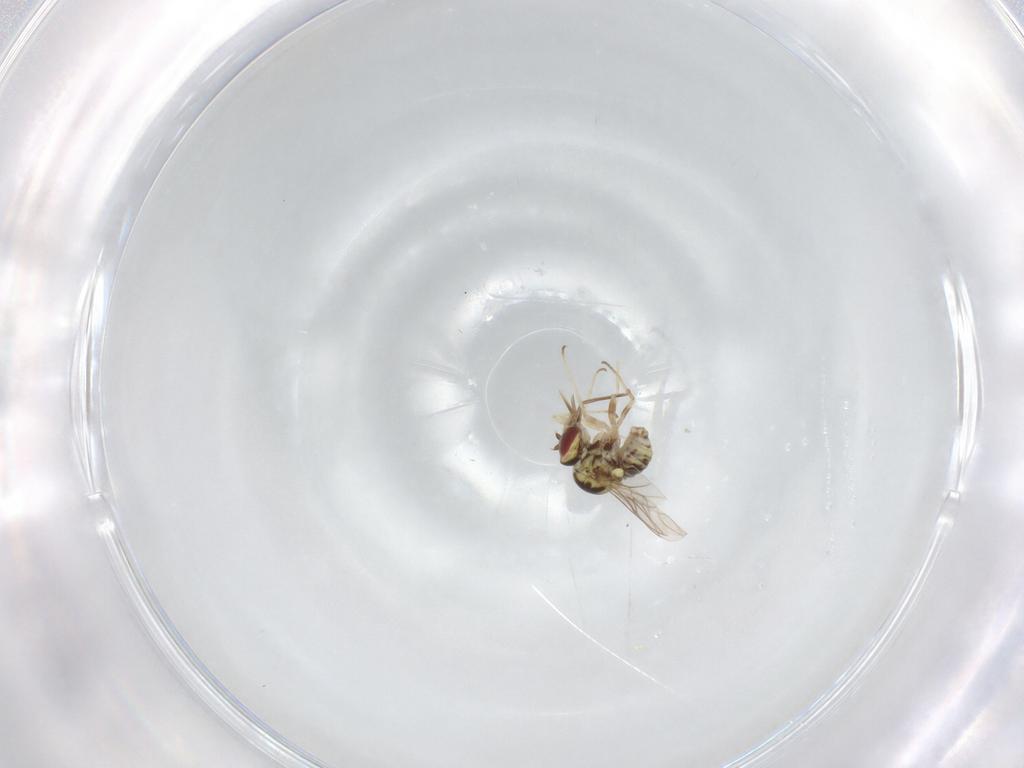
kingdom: Animalia
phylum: Arthropoda
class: Insecta
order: Diptera
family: Bombyliidae
